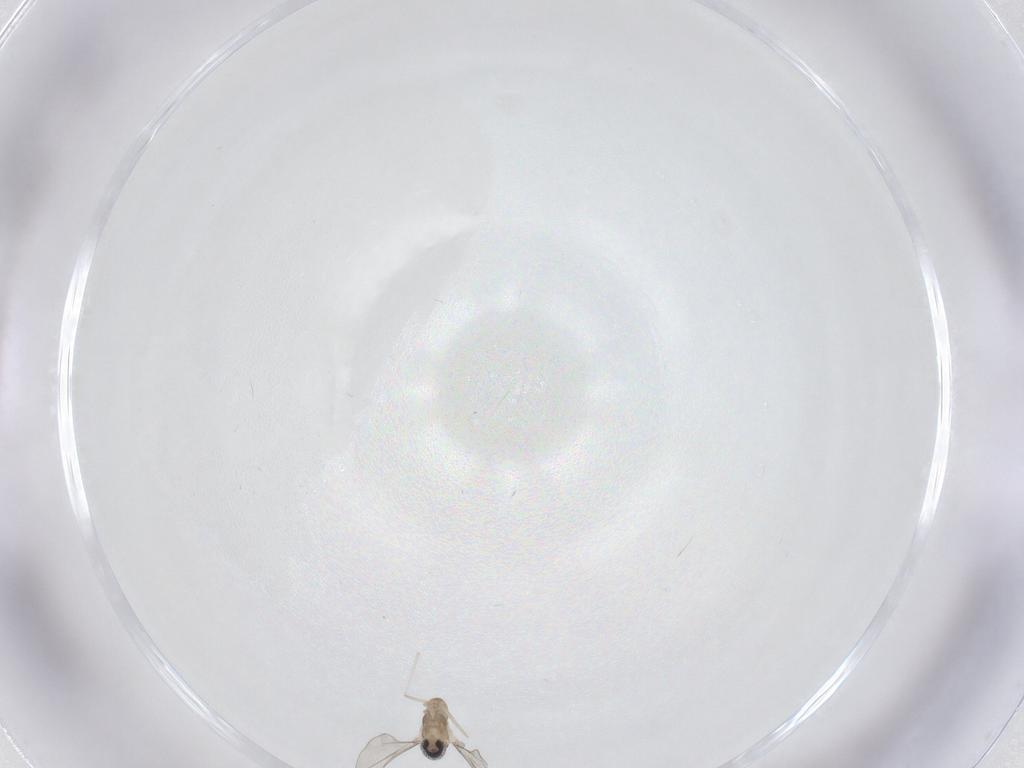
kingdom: Animalia
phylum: Arthropoda
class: Insecta
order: Diptera
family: Cecidomyiidae
